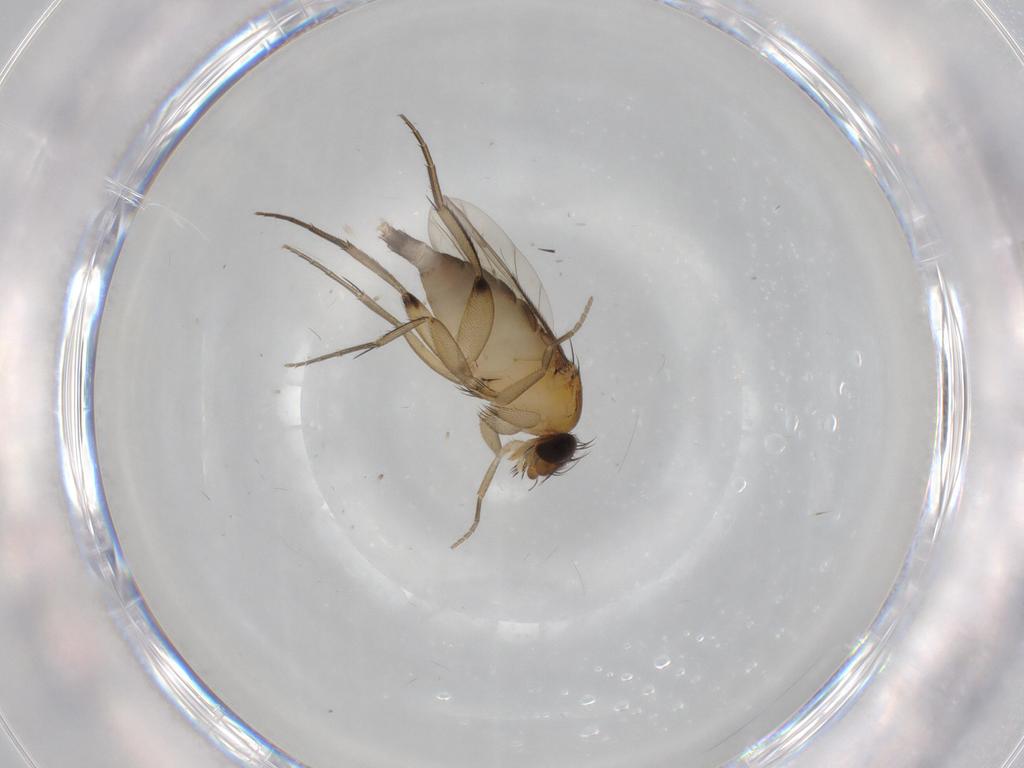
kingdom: Animalia
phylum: Arthropoda
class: Insecta
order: Diptera
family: Phoridae
